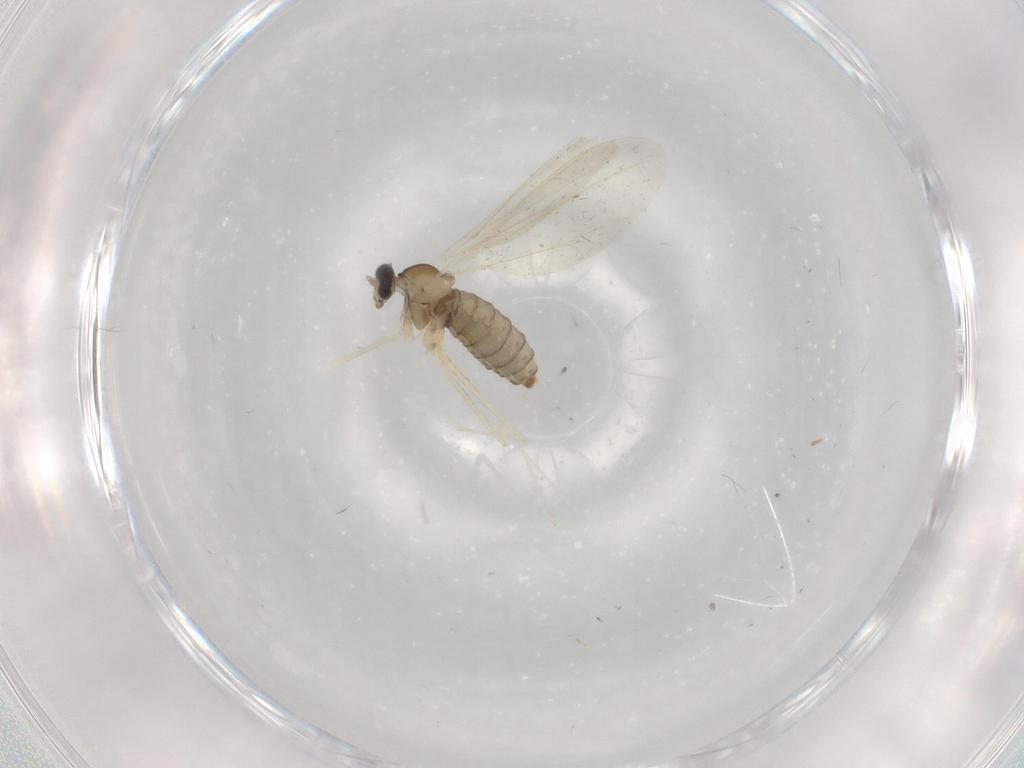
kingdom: Animalia
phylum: Arthropoda
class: Insecta
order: Diptera
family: Cecidomyiidae
